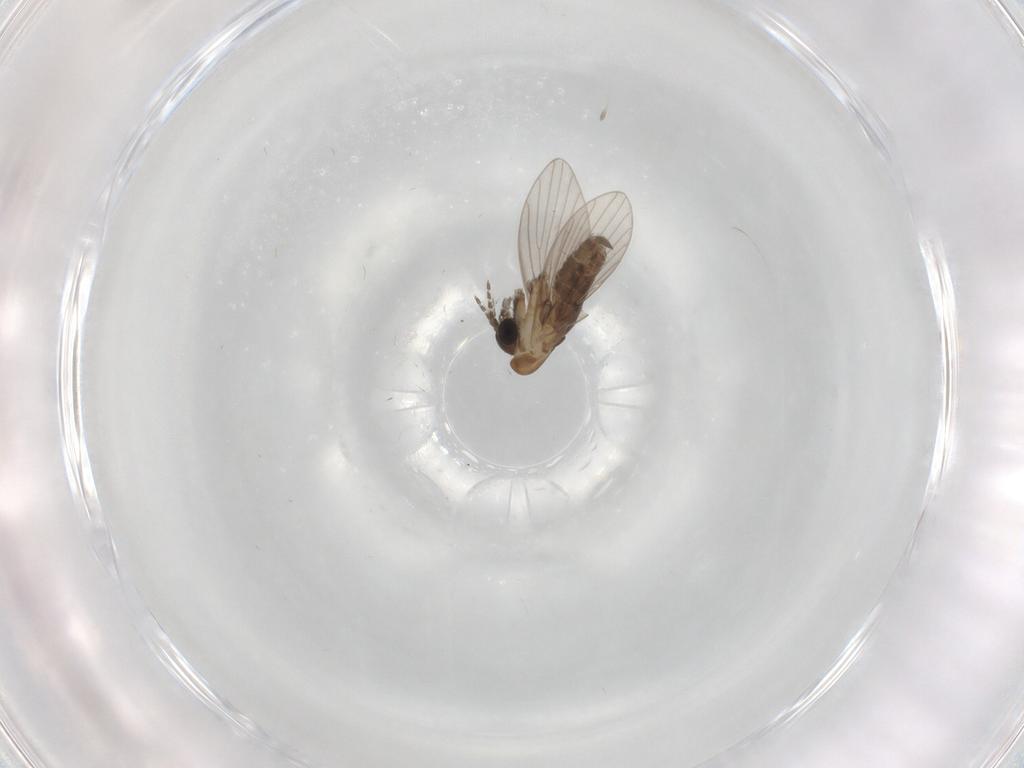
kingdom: Animalia
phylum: Arthropoda
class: Insecta
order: Diptera
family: Psychodidae
